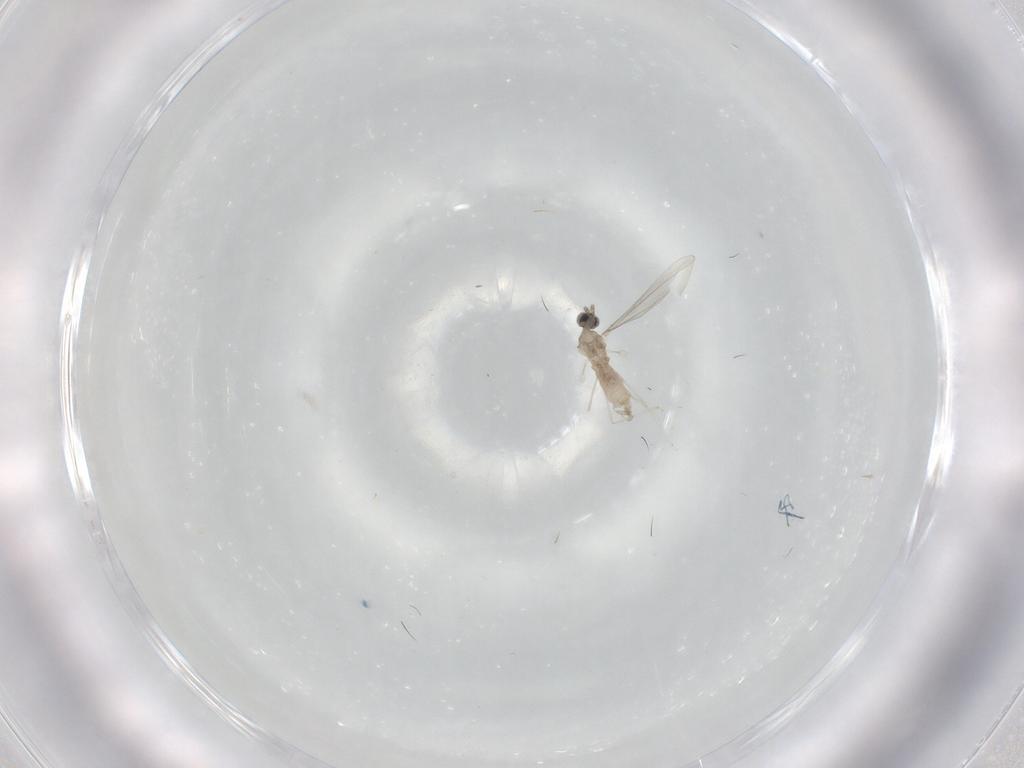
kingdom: Animalia
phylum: Arthropoda
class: Insecta
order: Diptera
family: Cecidomyiidae
